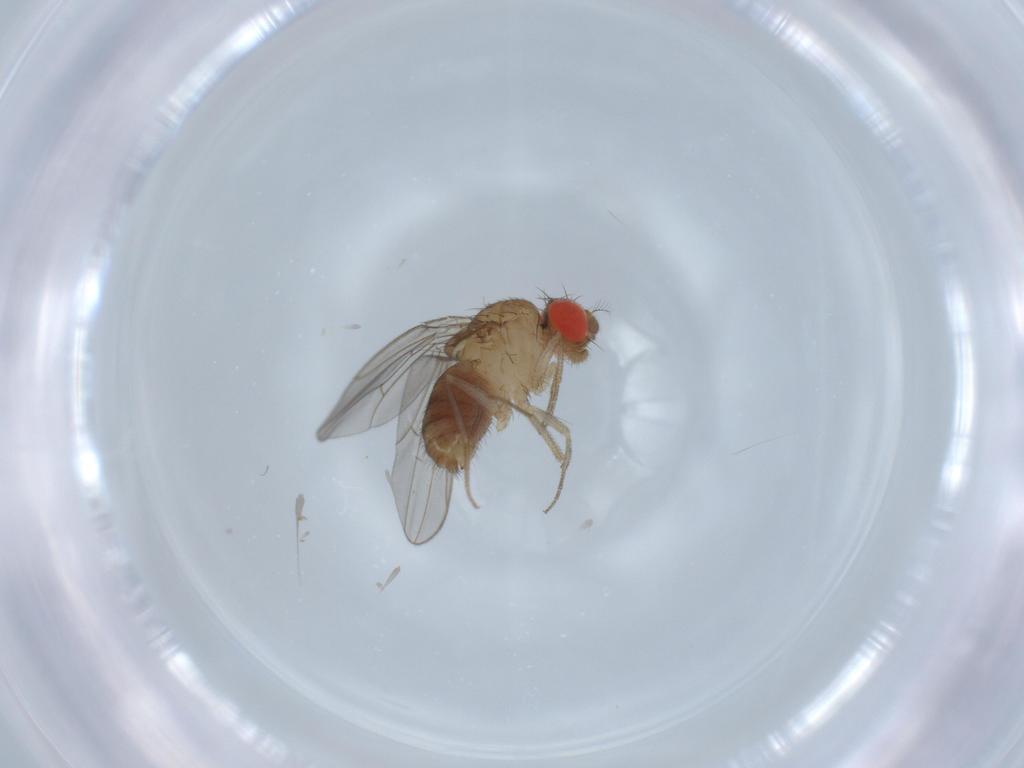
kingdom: Animalia
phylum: Arthropoda
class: Insecta
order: Diptera
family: Drosophilidae
